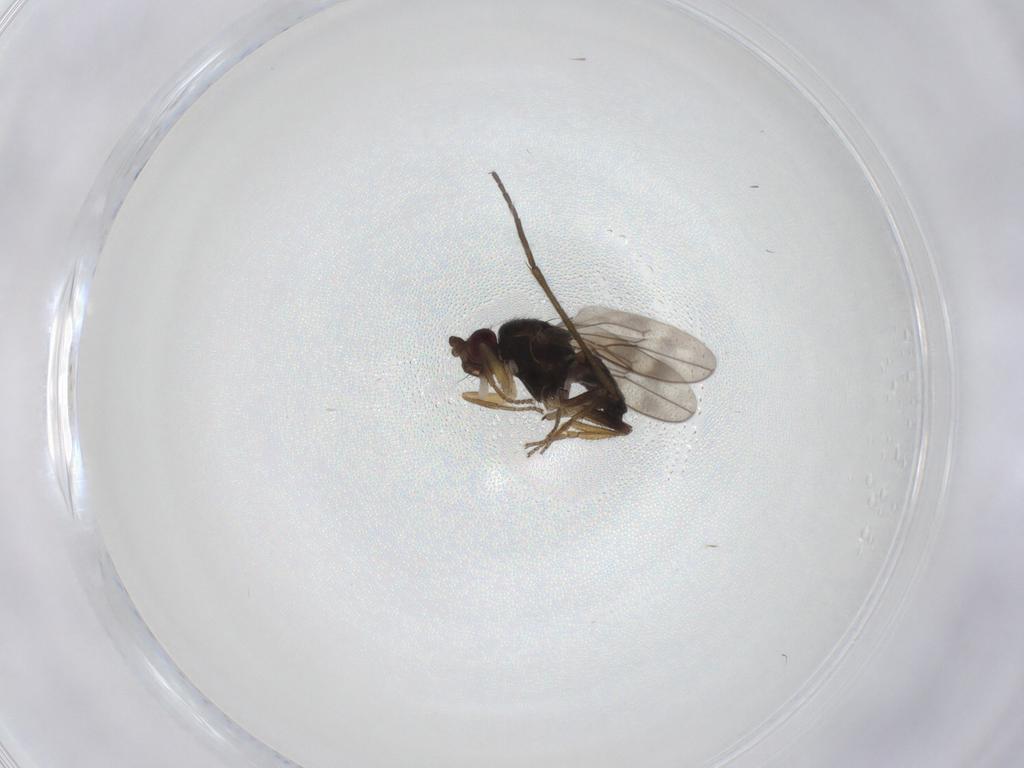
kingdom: Animalia
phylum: Arthropoda
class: Insecta
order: Diptera
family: Sphaeroceridae
